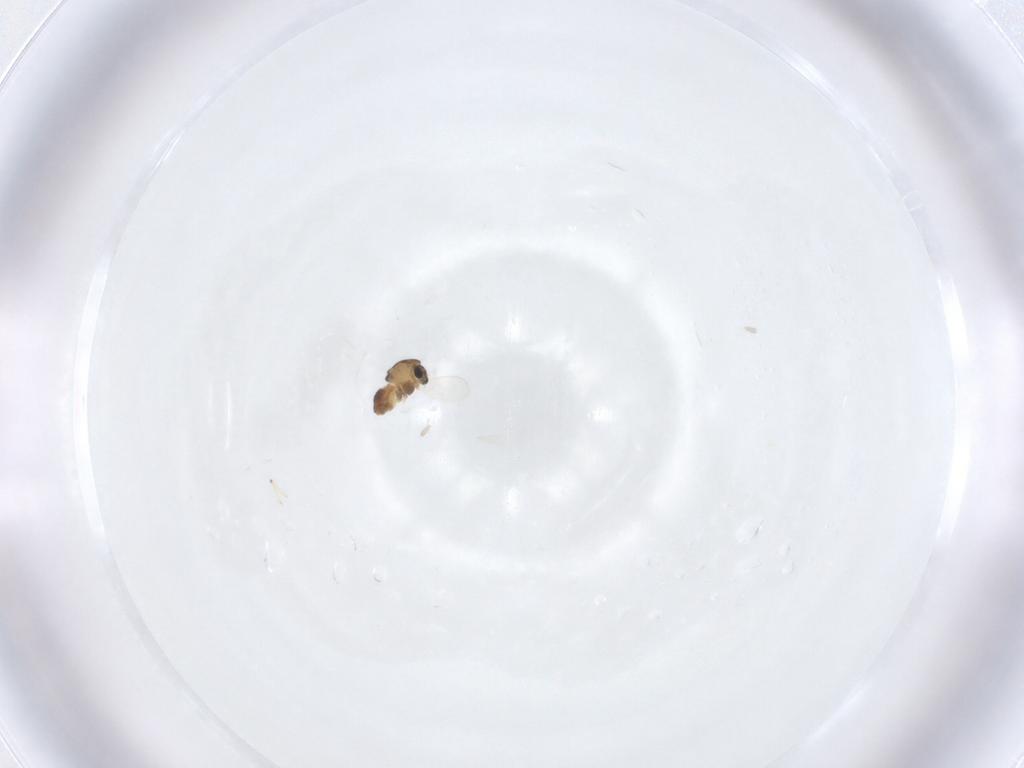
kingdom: Animalia
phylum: Arthropoda
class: Insecta
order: Diptera
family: Chironomidae
